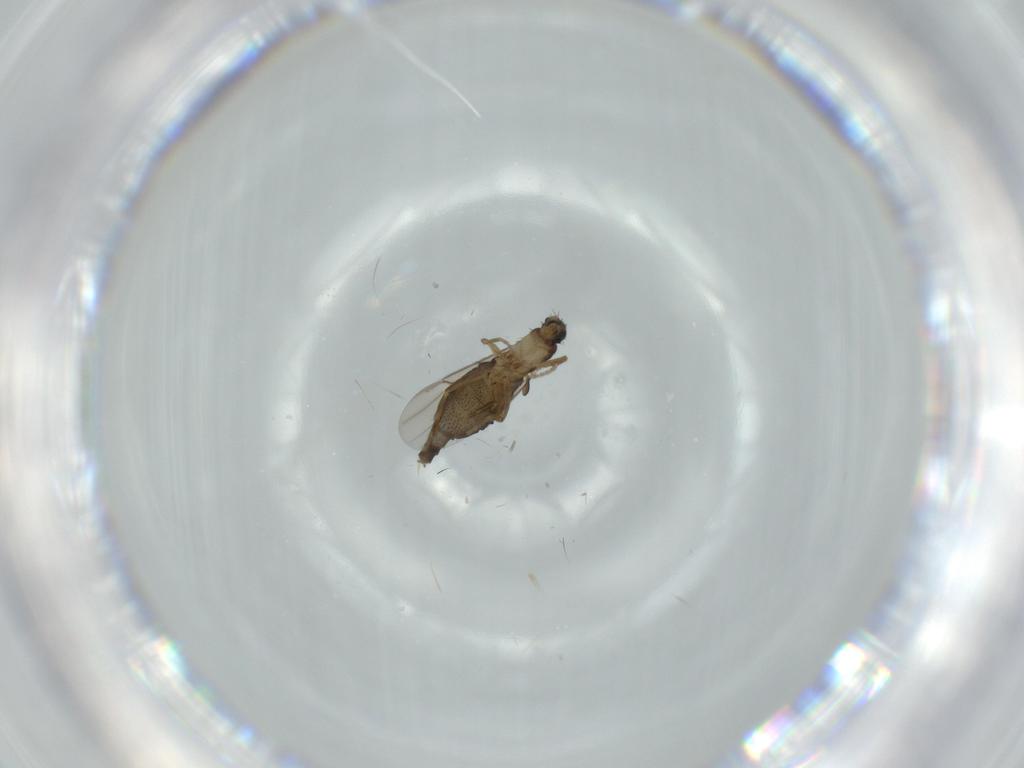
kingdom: Animalia
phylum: Arthropoda
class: Insecta
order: Diptera
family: Phoridae
